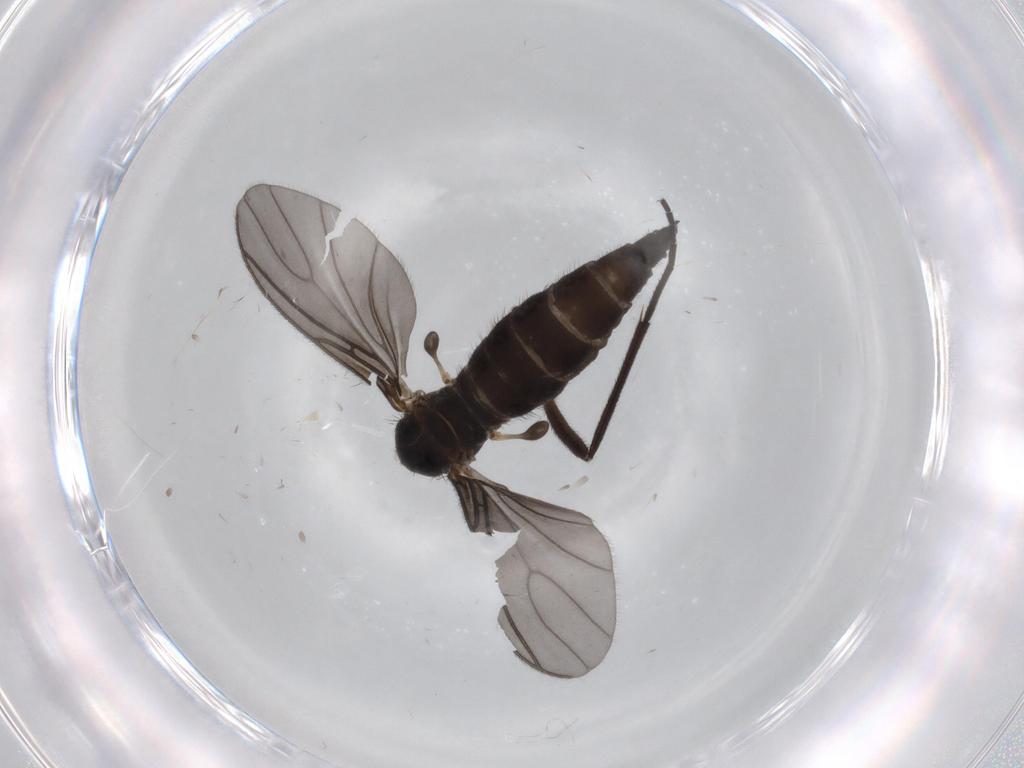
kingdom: Animalia
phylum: Arthropoda
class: Insecta
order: Diptera
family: Sciaridae
